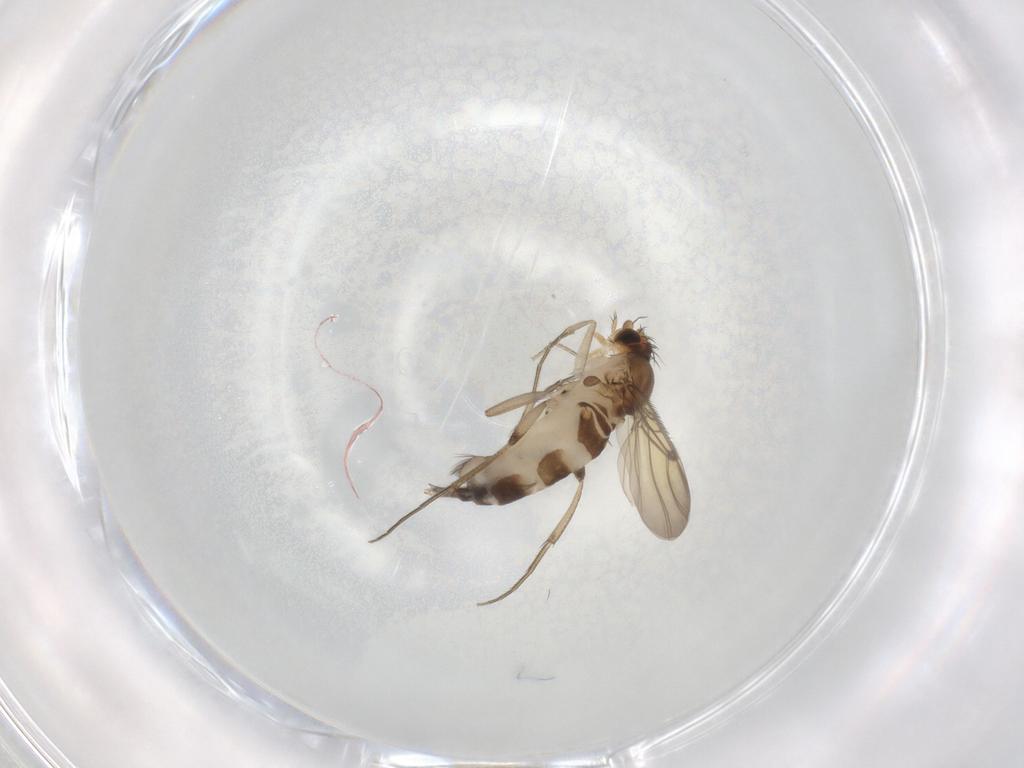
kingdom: Animalia
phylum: Arthropoda
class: Insecta
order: Diptera
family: Phoridae
